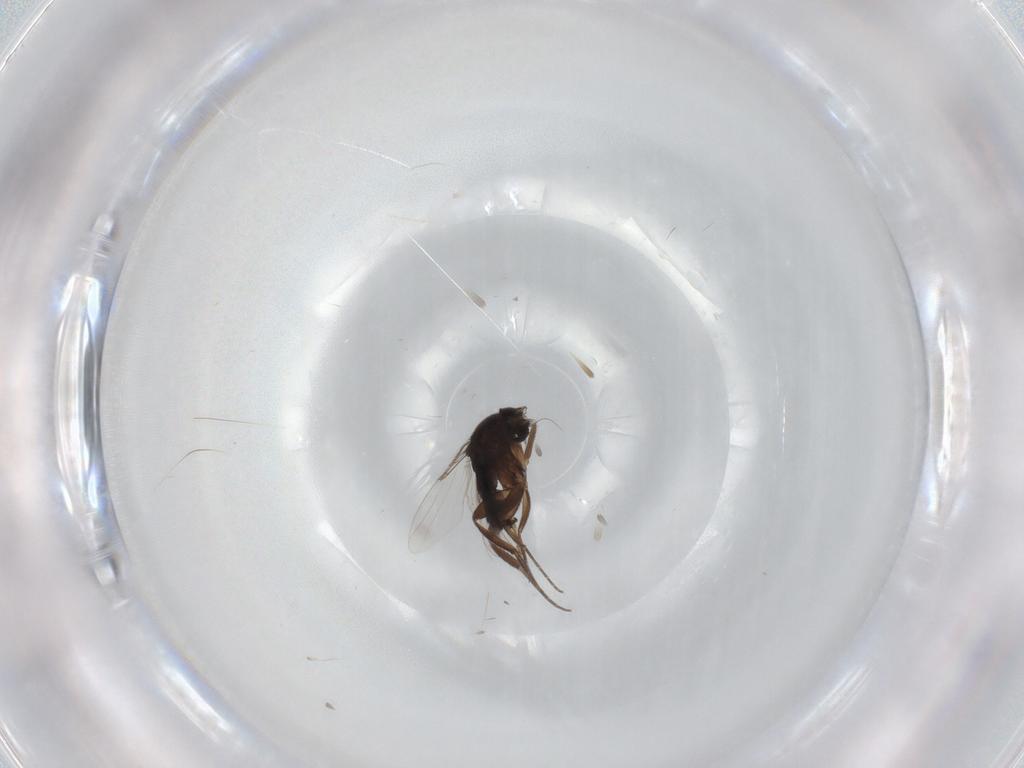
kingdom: Animalia
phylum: Arthropoda
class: Insecta
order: Diptera
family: Phoridae
